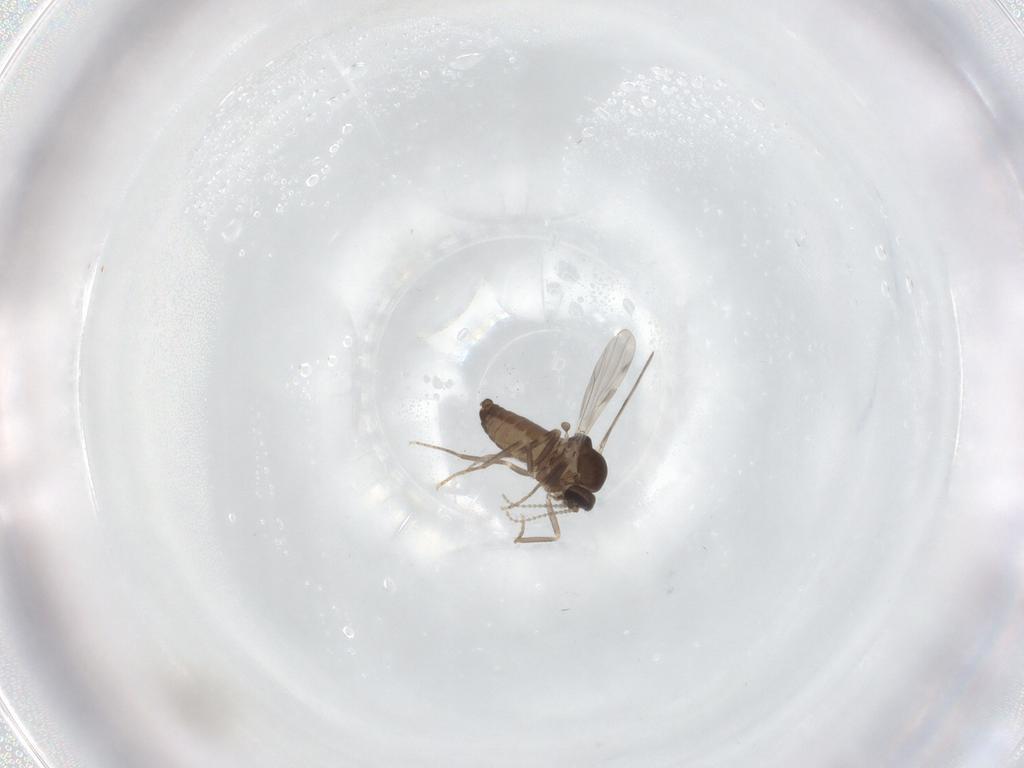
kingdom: Animalia
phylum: Arthropoda
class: Insecta
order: Diptera
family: Ceratopogonidae
